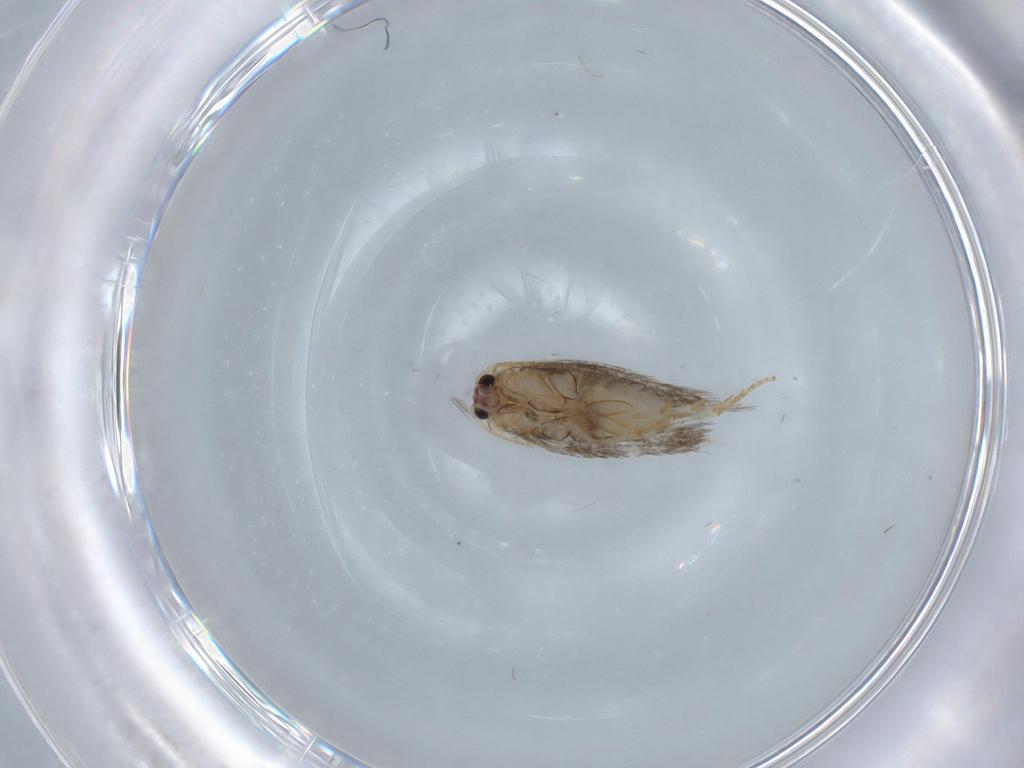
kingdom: Animalia
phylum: Arthropoda
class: Insecta
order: Lepidoptera
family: Nepticulidae
